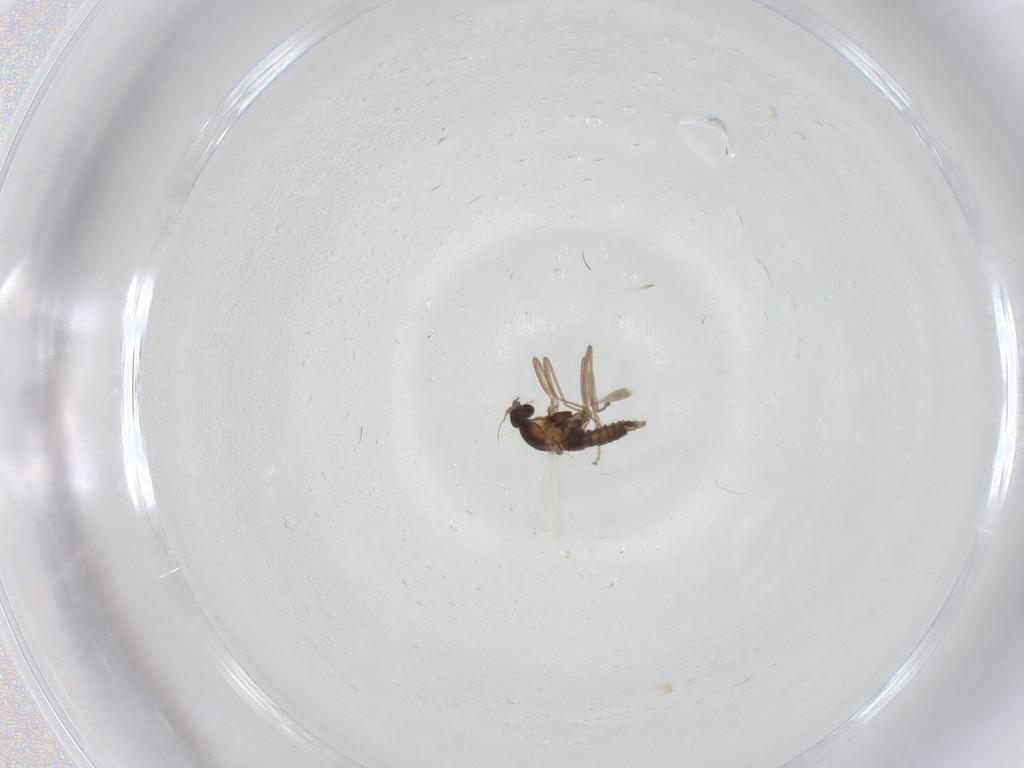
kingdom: Animalia
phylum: Arthropoda
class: Insecta
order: Diptera
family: Cecidomyiidae
